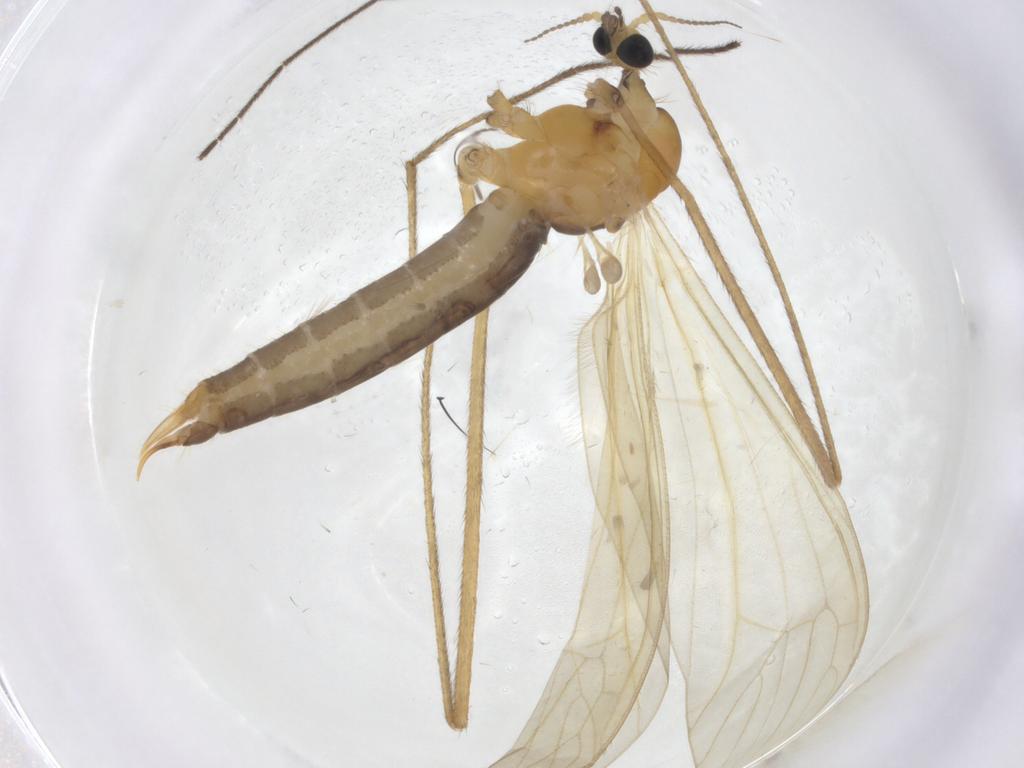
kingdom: Animalia
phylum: Arthropoda
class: Insecta
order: Diptera
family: Limoniidae
